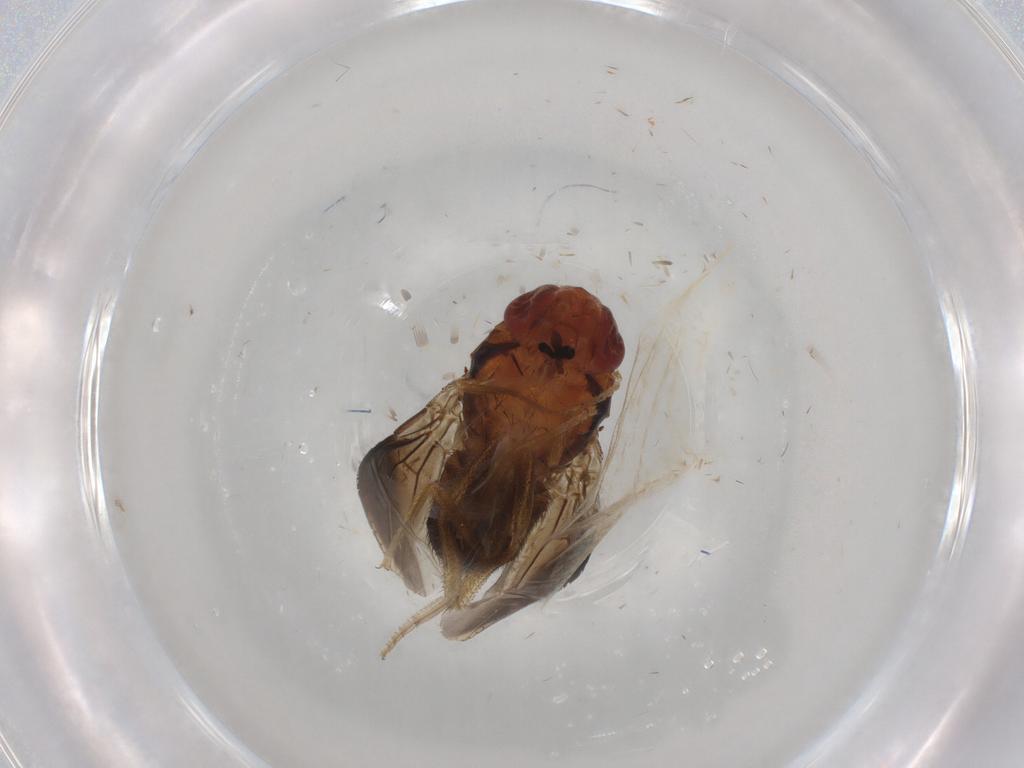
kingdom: Animalia
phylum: Arthropoda
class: Insecta
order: Diptera
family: Drosophilidae
